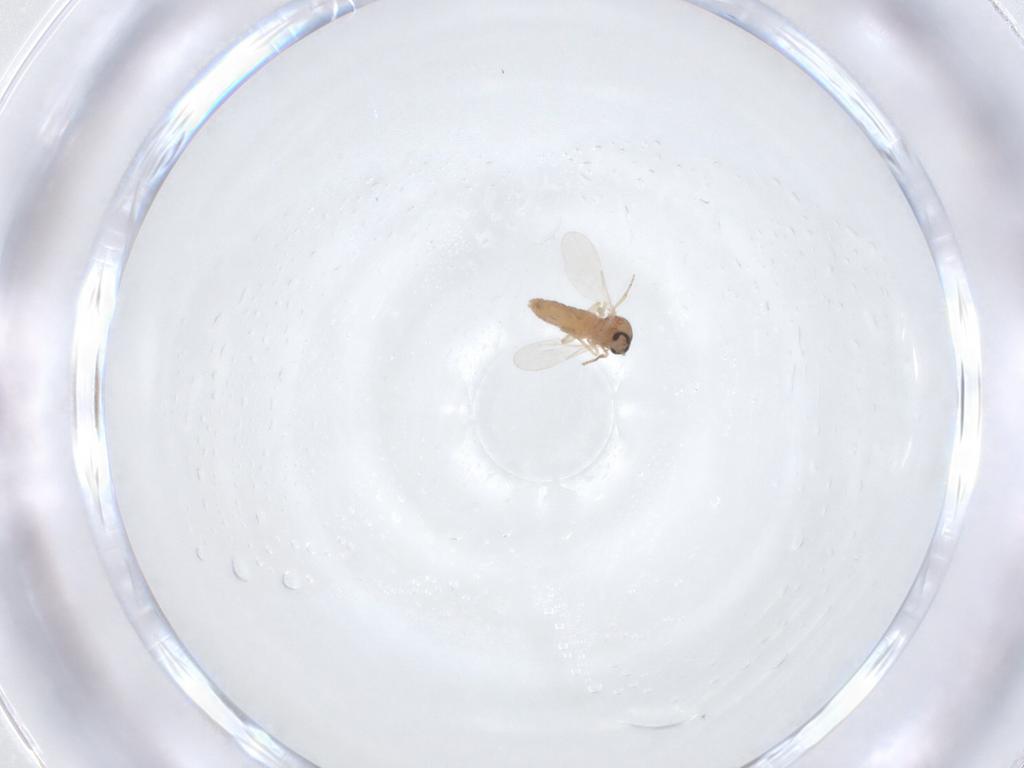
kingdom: Animalia
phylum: Arthropoda
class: Insecta
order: Diptera
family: Ceratopogonidae
